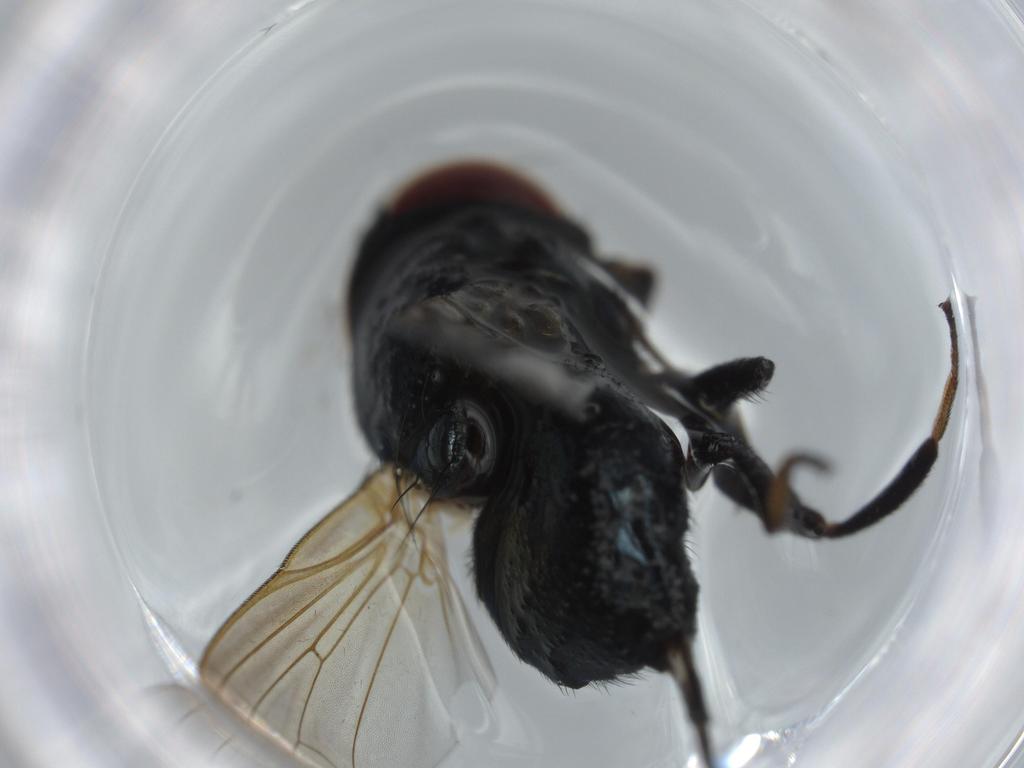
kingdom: Animalia
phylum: Arthropoda
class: Insecta
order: Diptera
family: Lonchaeidae
